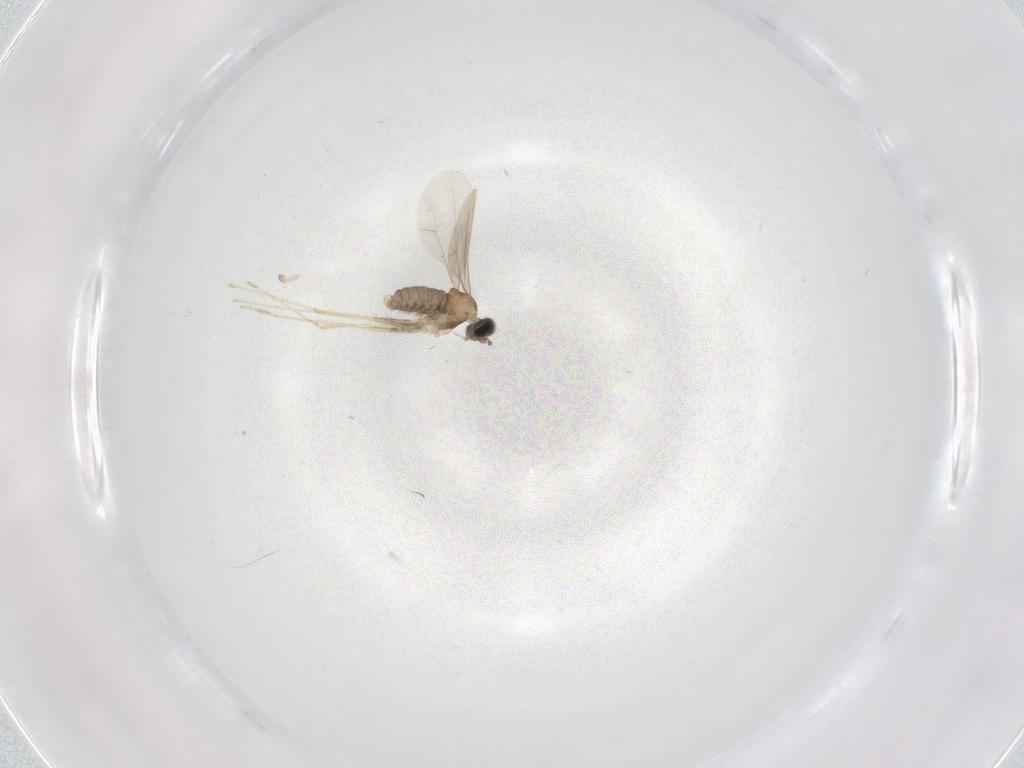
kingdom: Animalia
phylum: Arthropoda
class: Insecta
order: Diptera
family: Cecidomyiidae
